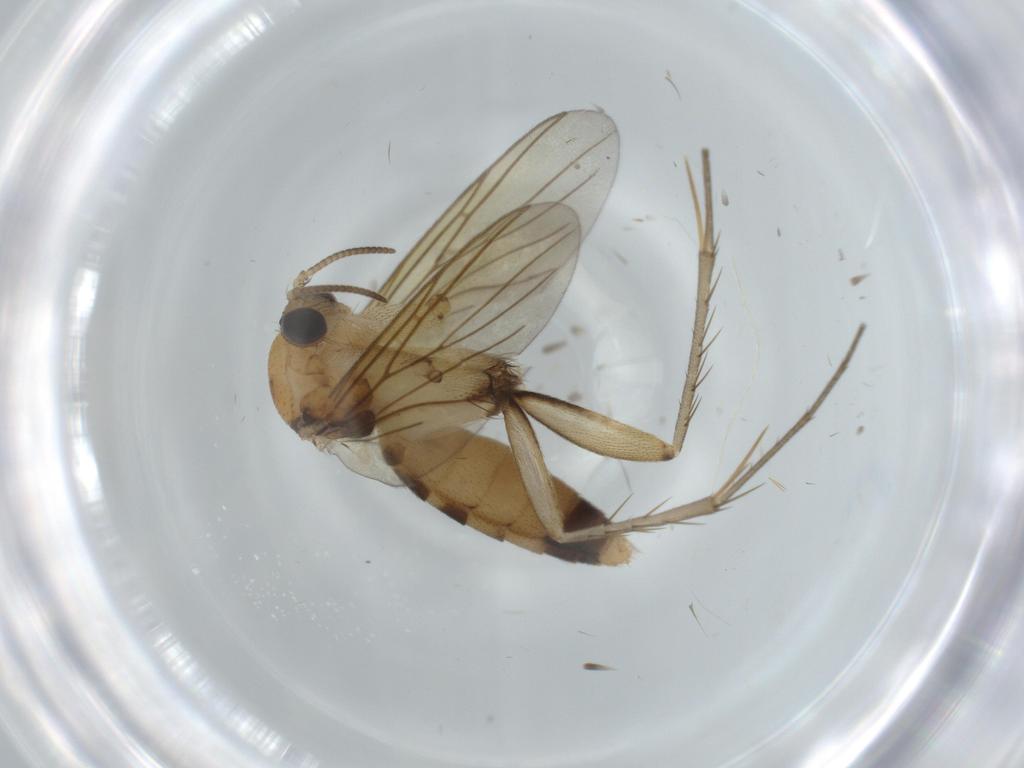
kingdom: Animalia
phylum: Arthropoda
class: Insecta
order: Diptera
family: Mycetophilidae
